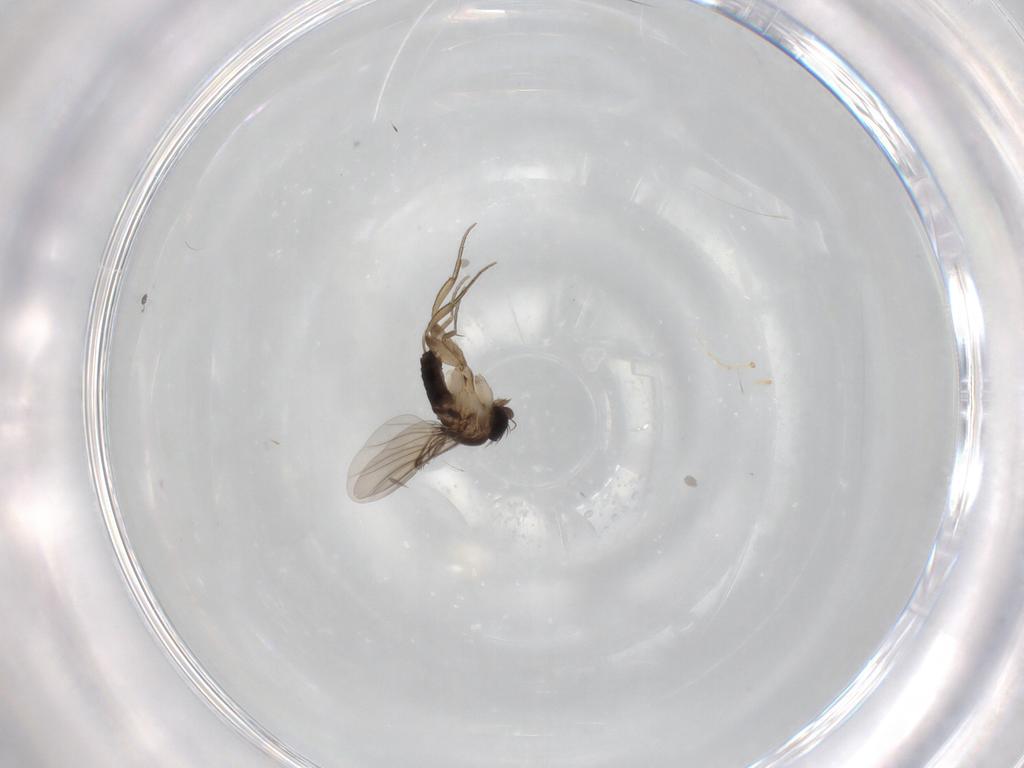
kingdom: Animalia
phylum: Arthropoda
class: Insecta
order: Diptera
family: Phoridae
